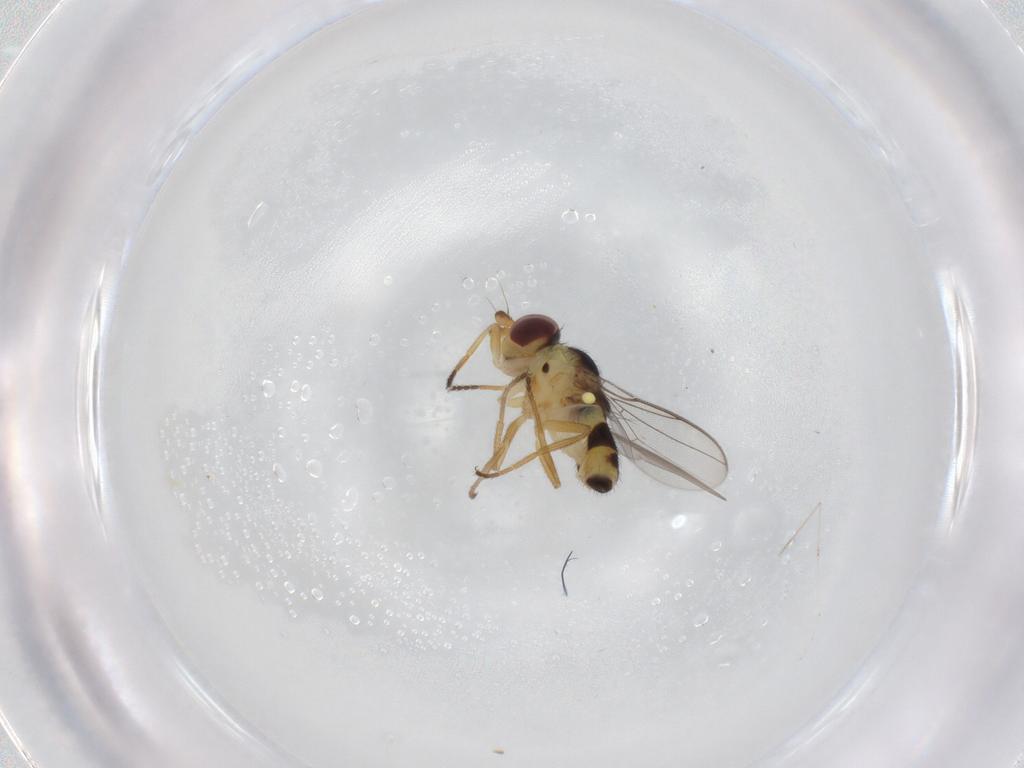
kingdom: Animalia
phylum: Arthropoda
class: Insecta
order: Diptera
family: Chloropidae
